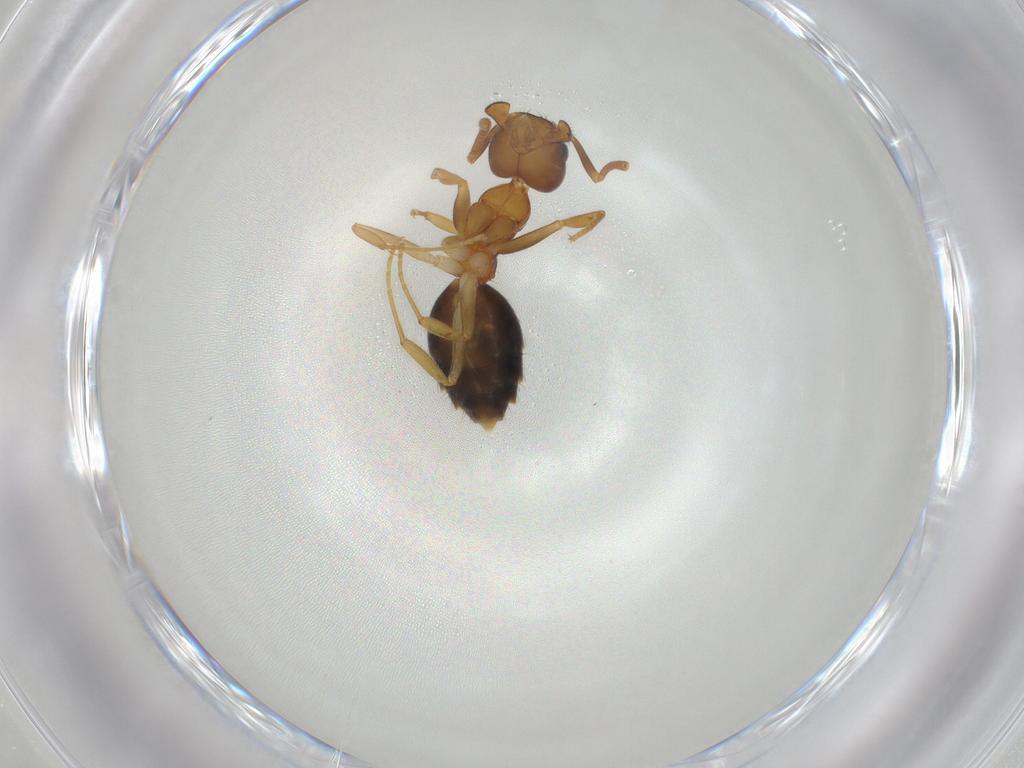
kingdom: Animalia
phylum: Arthropoda
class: Insecta
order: Hymenoptera
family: Formicidae
